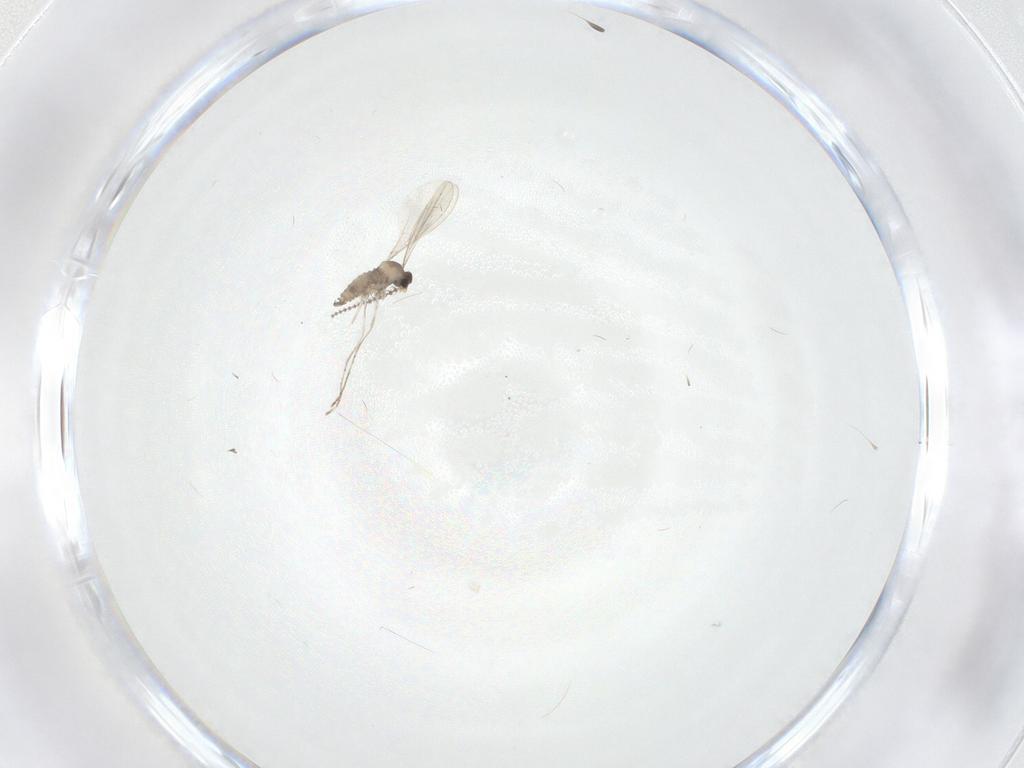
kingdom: Animalia
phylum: Arthropoda
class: Insecta
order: Diptera
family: Cecidomyiidae
